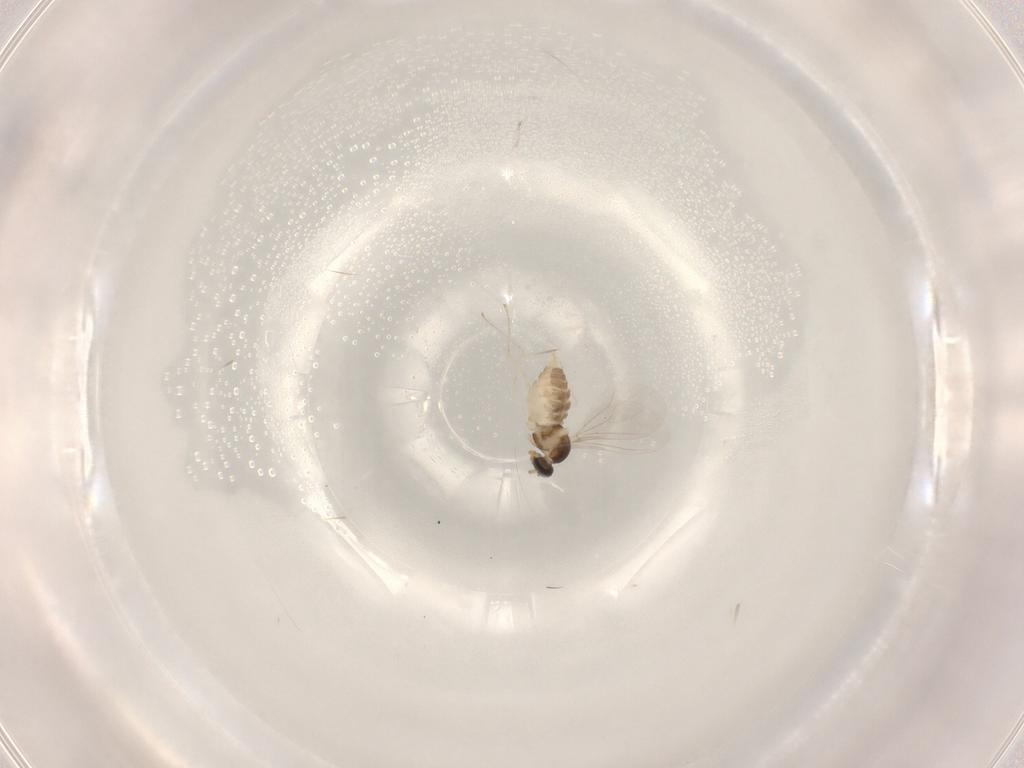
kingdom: Animalia
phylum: Arthropoda
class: Insecta
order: Diptera
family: Cecidomyiidae
